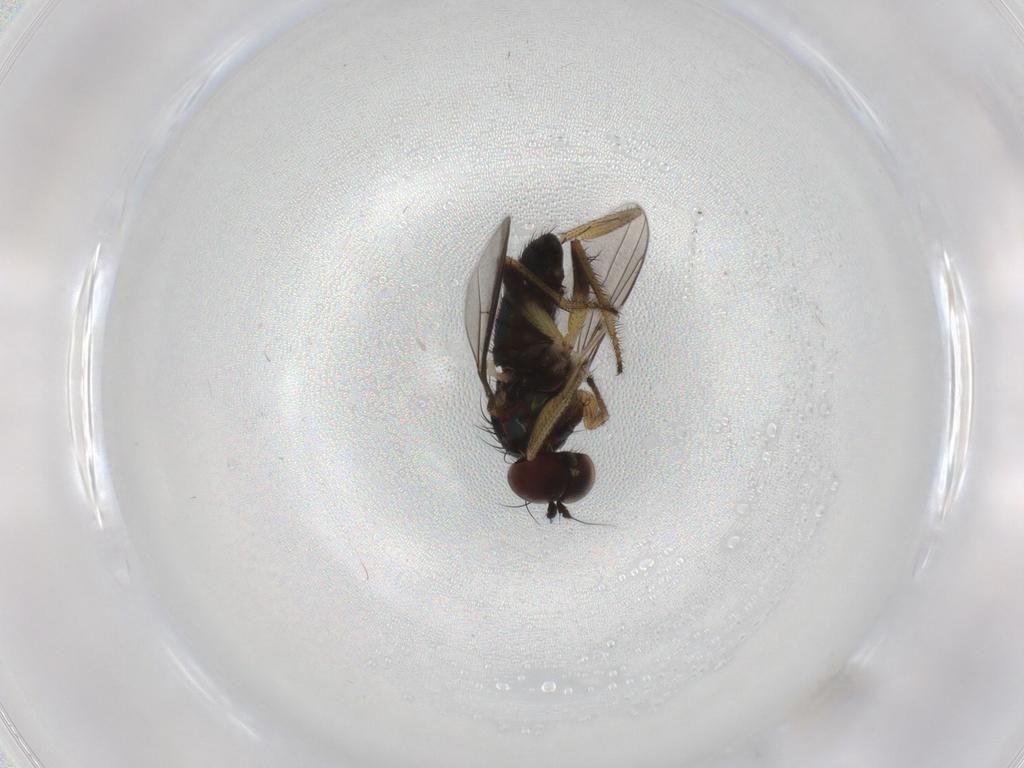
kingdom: Animalia
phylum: Arthropoda
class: Insecta
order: Diptera
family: Dolichopodidae
